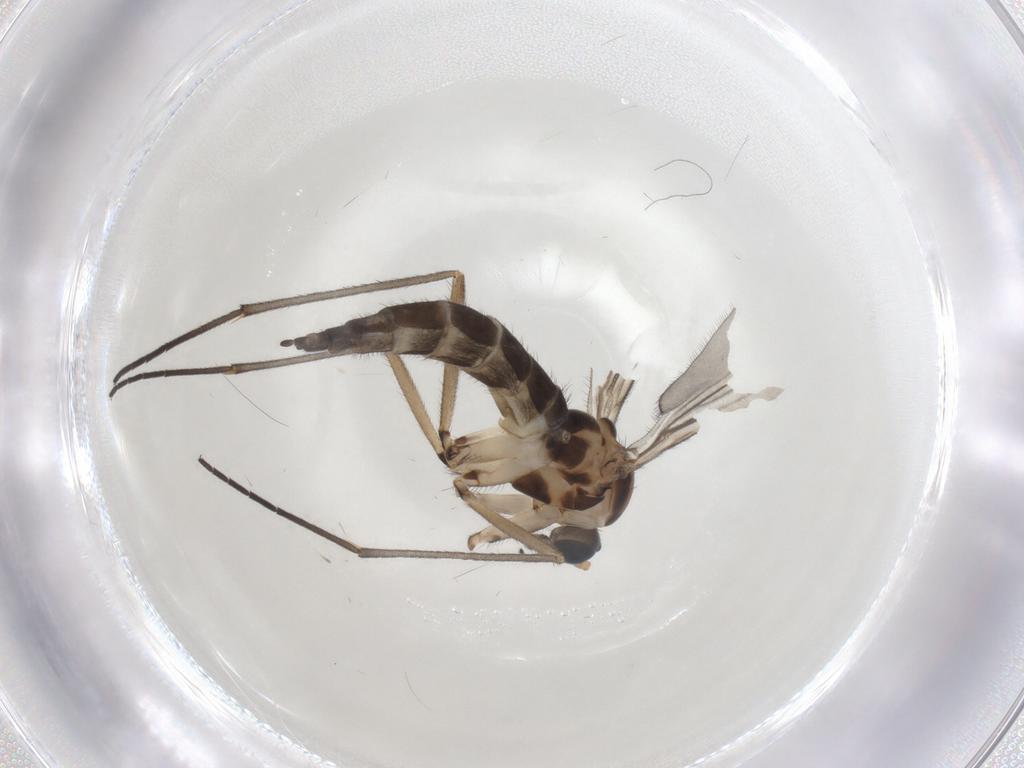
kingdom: Animalia
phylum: Arthropoda
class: Insecta
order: Diptera
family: Sciaridae
